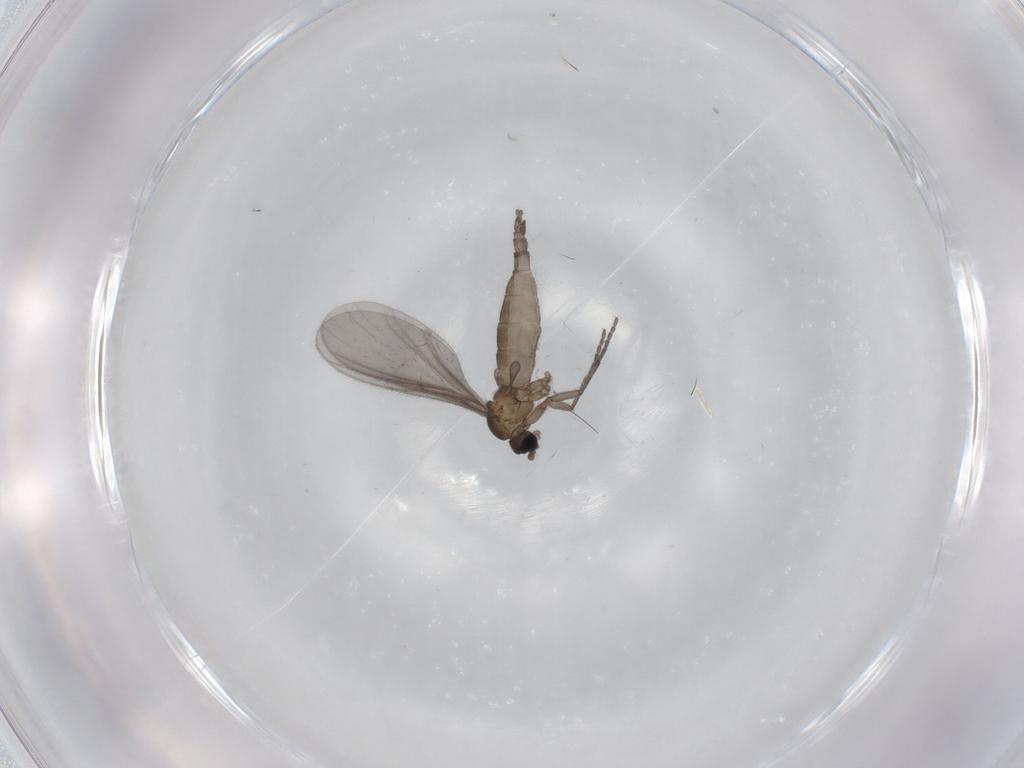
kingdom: Animalia
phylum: Arthropoda
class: Insecta
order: Diptera
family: Sciaridae
